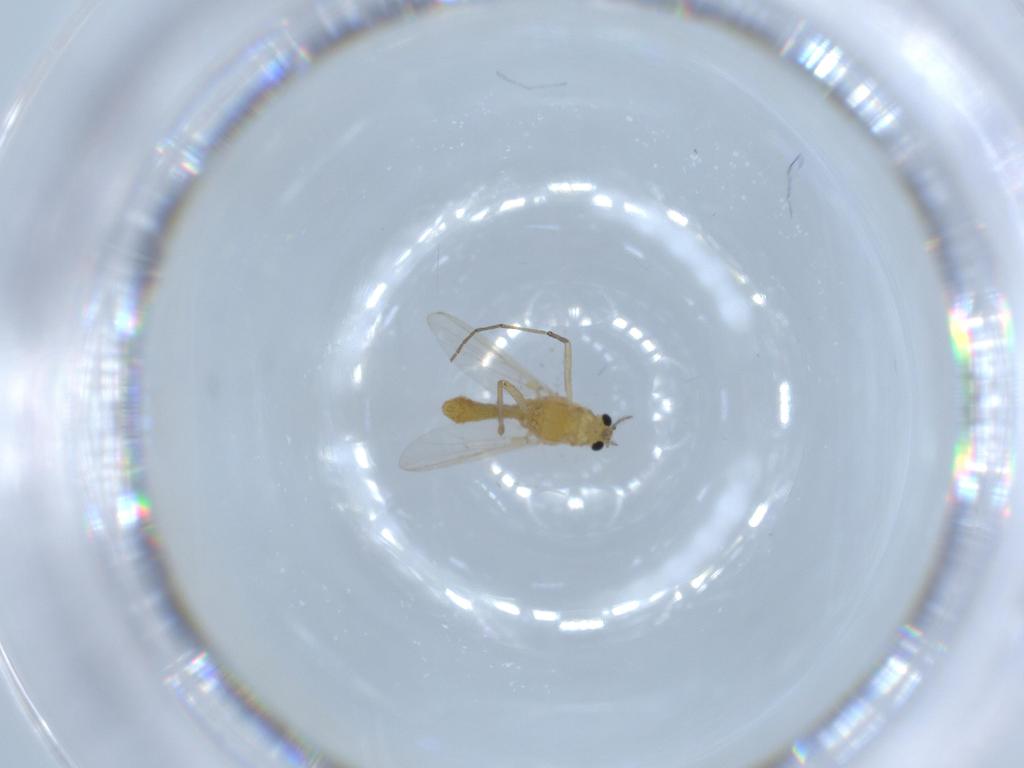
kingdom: Animalia
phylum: Arthropoda
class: Insecta
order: Diptera
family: Chironomidae
